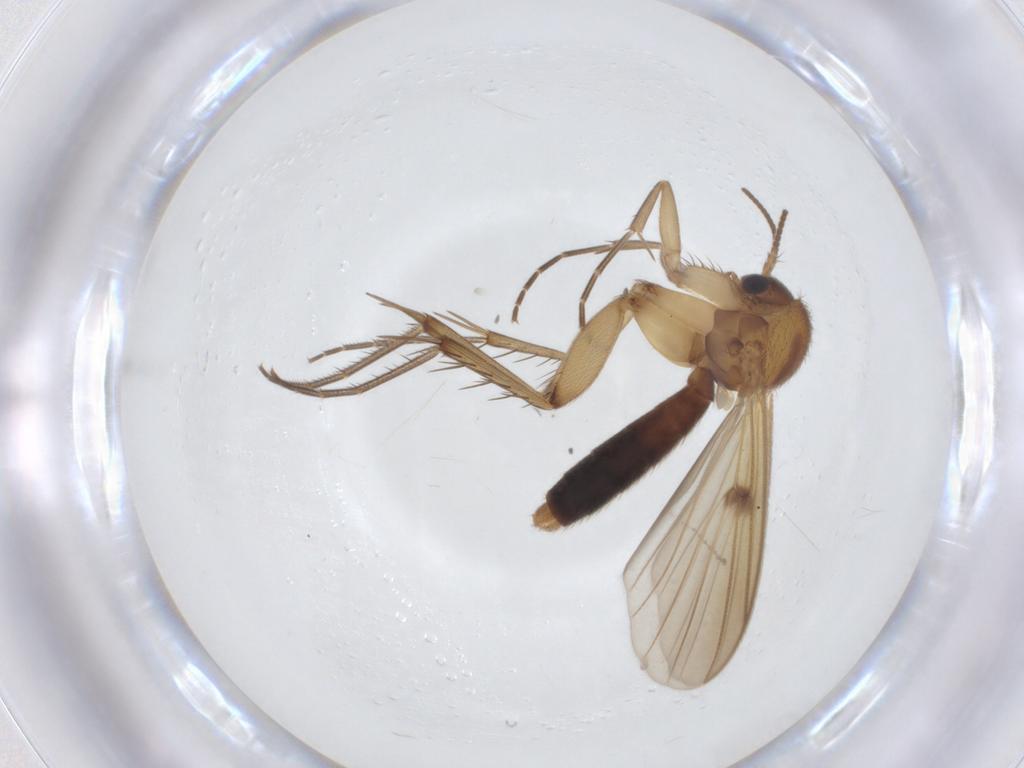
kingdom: Animalia
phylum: Arthropoda
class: Insecta
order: Diptera
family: Cecidomyiidae
